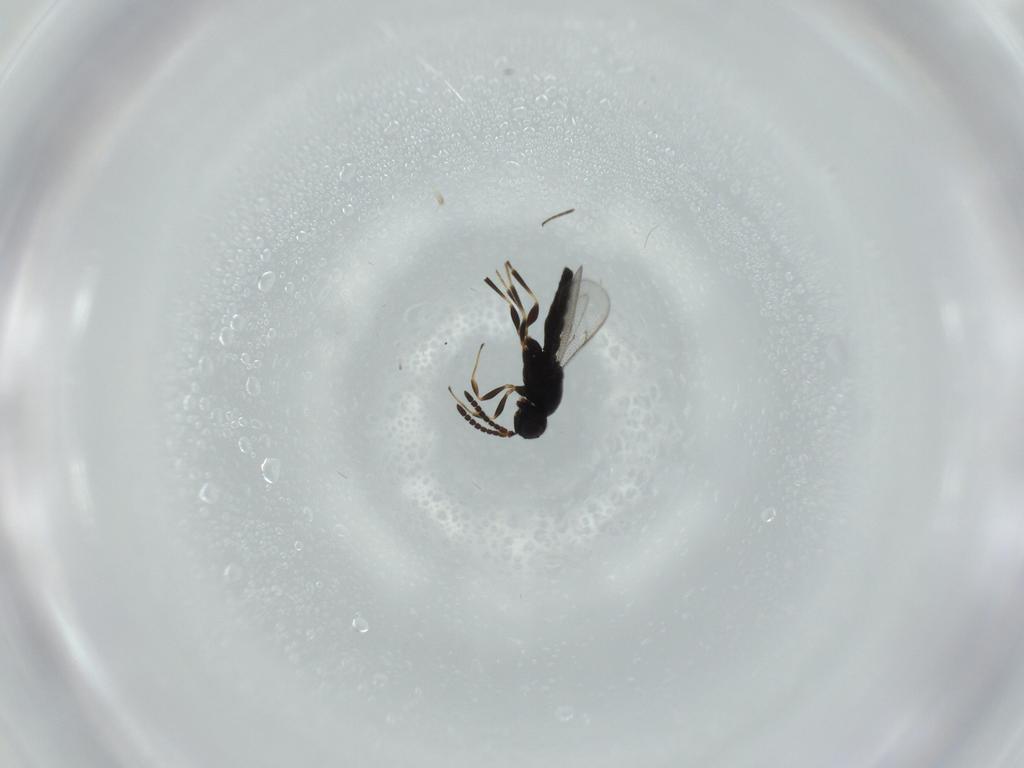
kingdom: Animalia
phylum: Arthropoda
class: Insecta
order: Hymenoptera
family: Scelionidae
